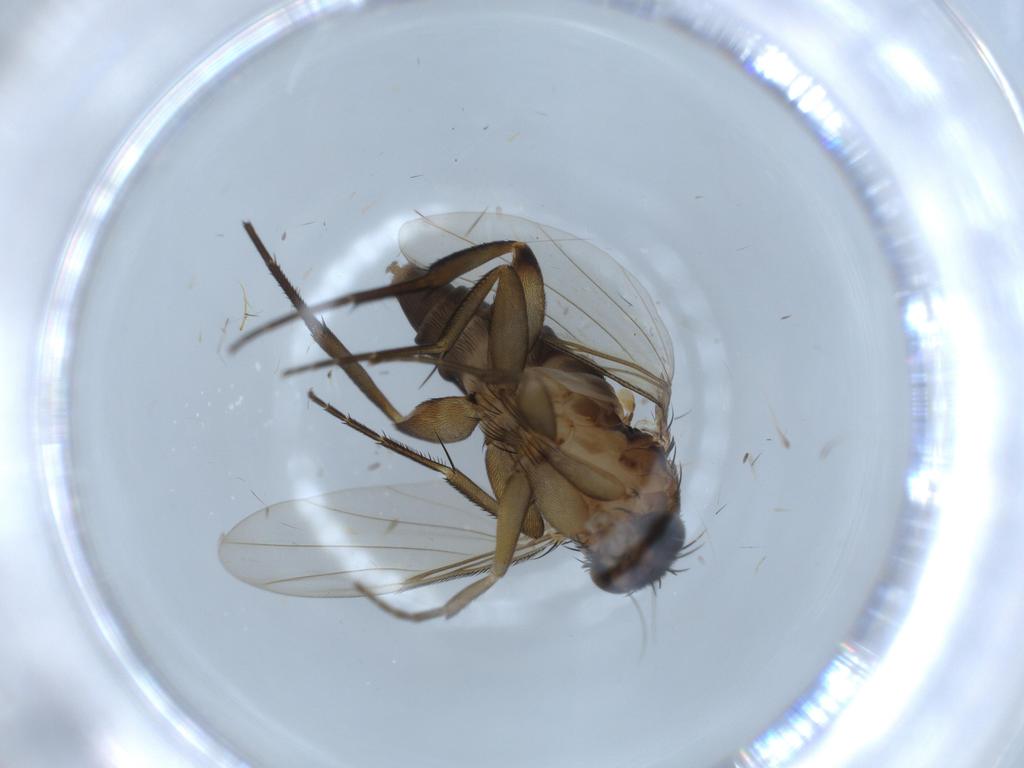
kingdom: Animalia
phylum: Arthropoda
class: Insecta
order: Diptera
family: Phoridae
